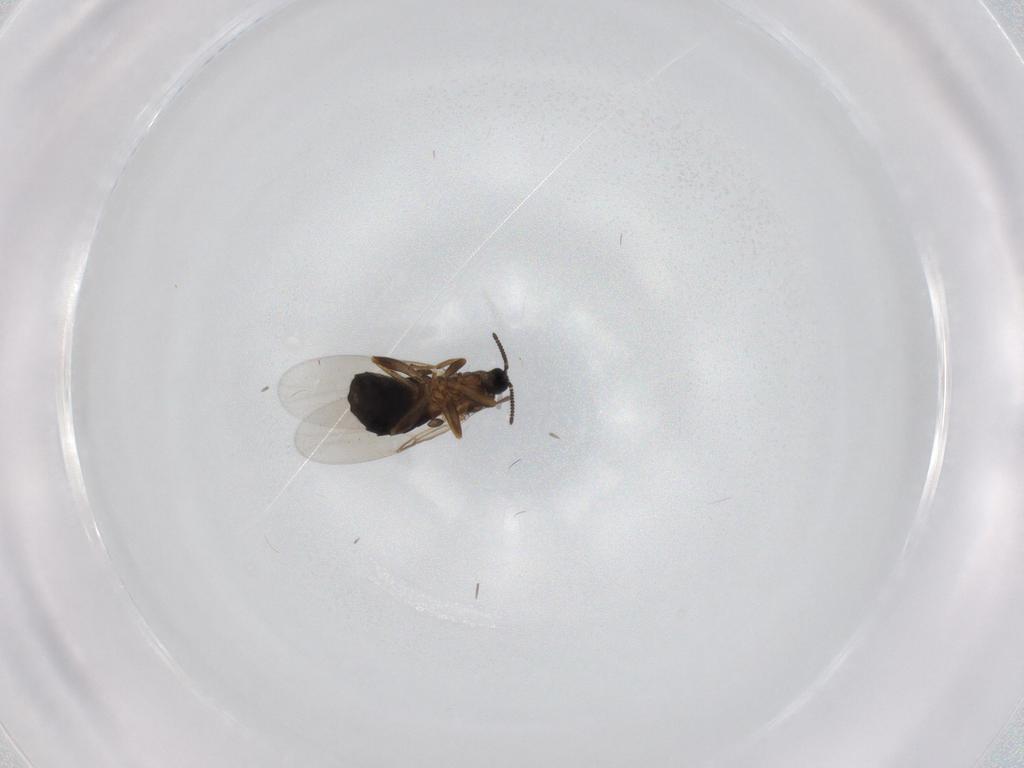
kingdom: Animalia
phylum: Arthropoda
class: Insecta
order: Diptera
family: Scatopsidae
